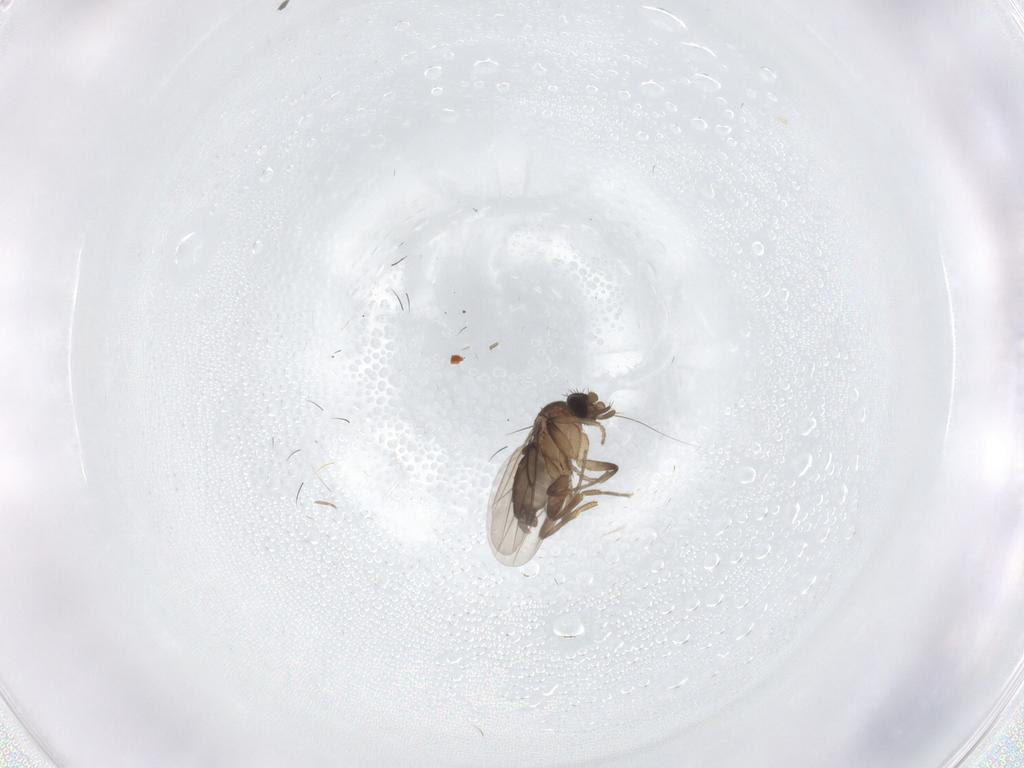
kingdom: Animalia
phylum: Arthropoda
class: Insecta
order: Diptera
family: Phoridae
